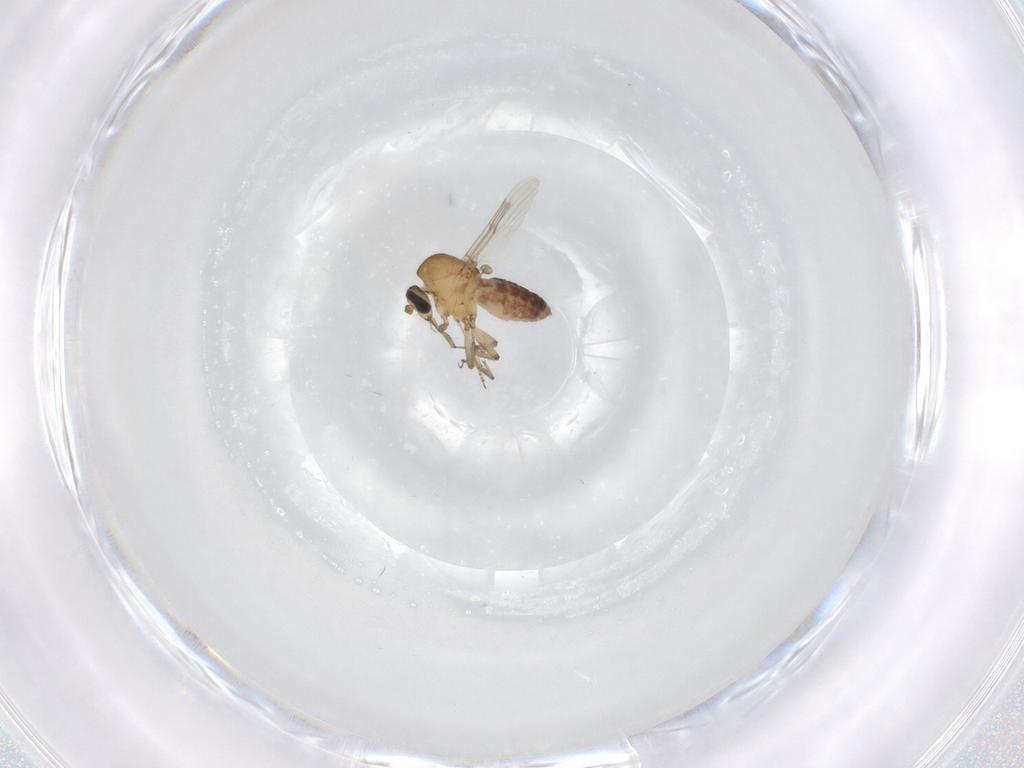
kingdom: Animalia
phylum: Arthropoda
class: Insecta
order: Diptera
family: Ceratopogonidae
